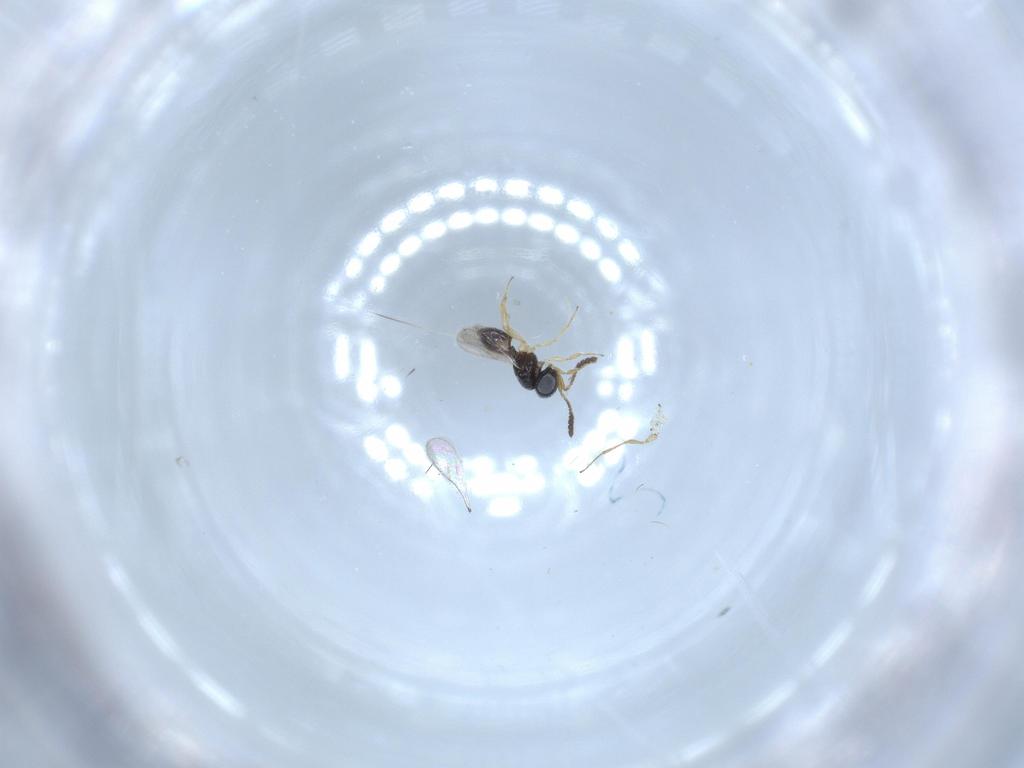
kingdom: Animalia
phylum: Arthropoda
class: Insecta
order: Hymenoptera
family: Scelionidae
